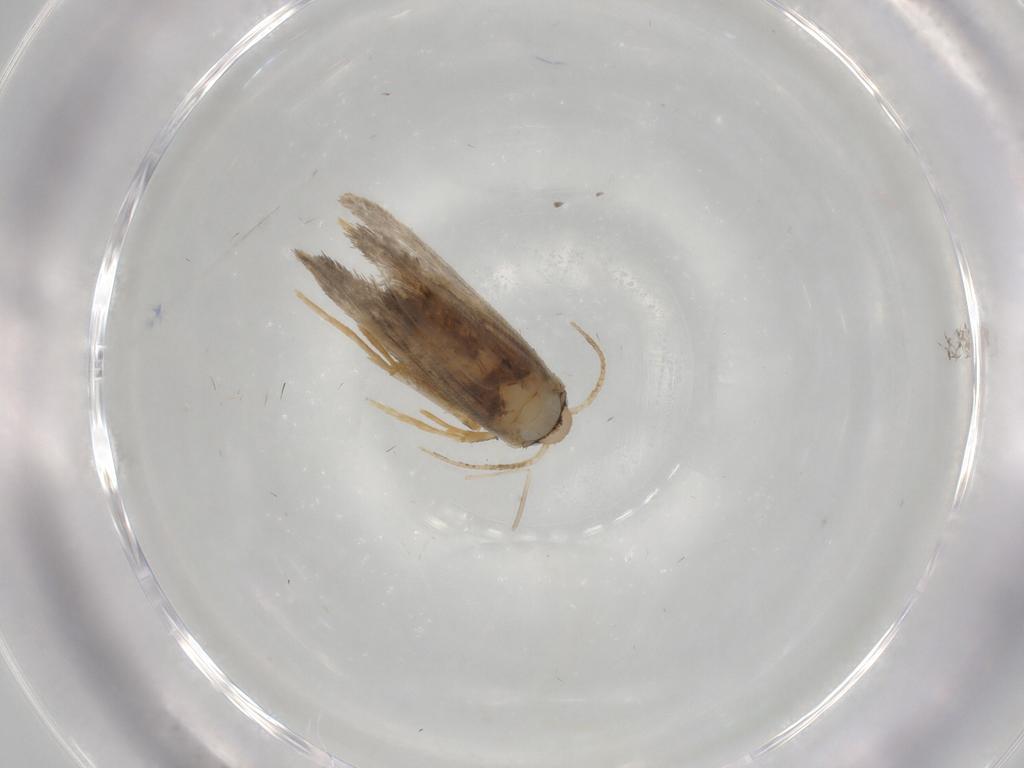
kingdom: Animalia
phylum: Arthropoda
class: Insecta
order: Lepidoptera
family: Psychidae
